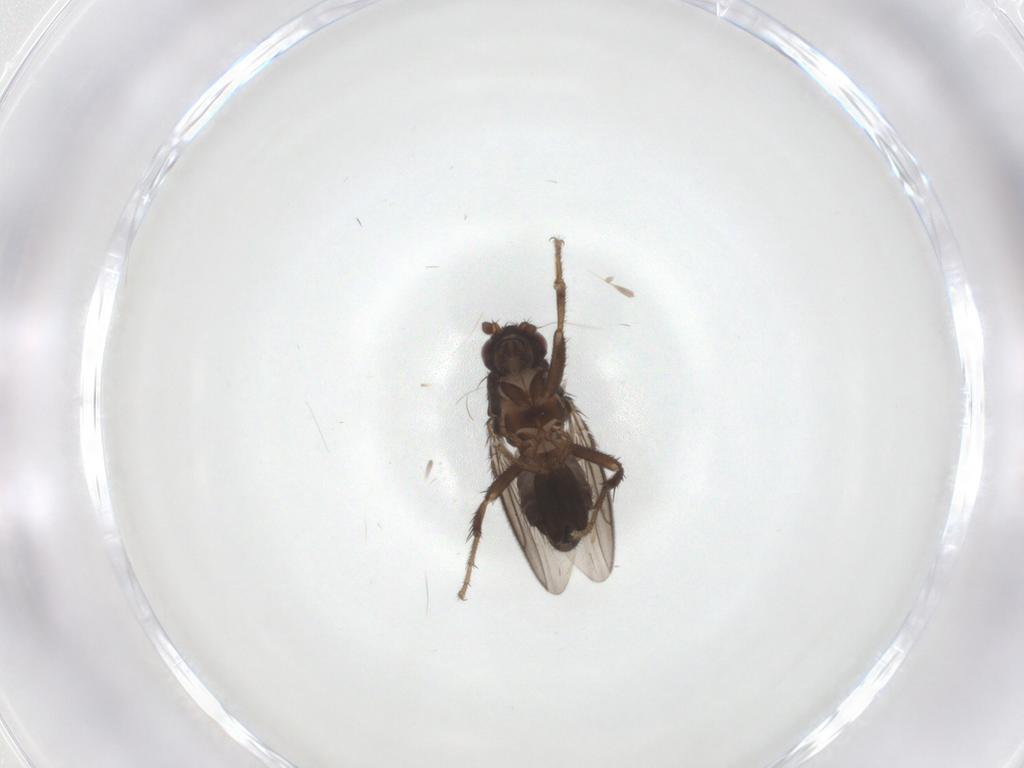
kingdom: Animalia
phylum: Arthropoda
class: Insecta
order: Diptera
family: Sphaeroceridae
